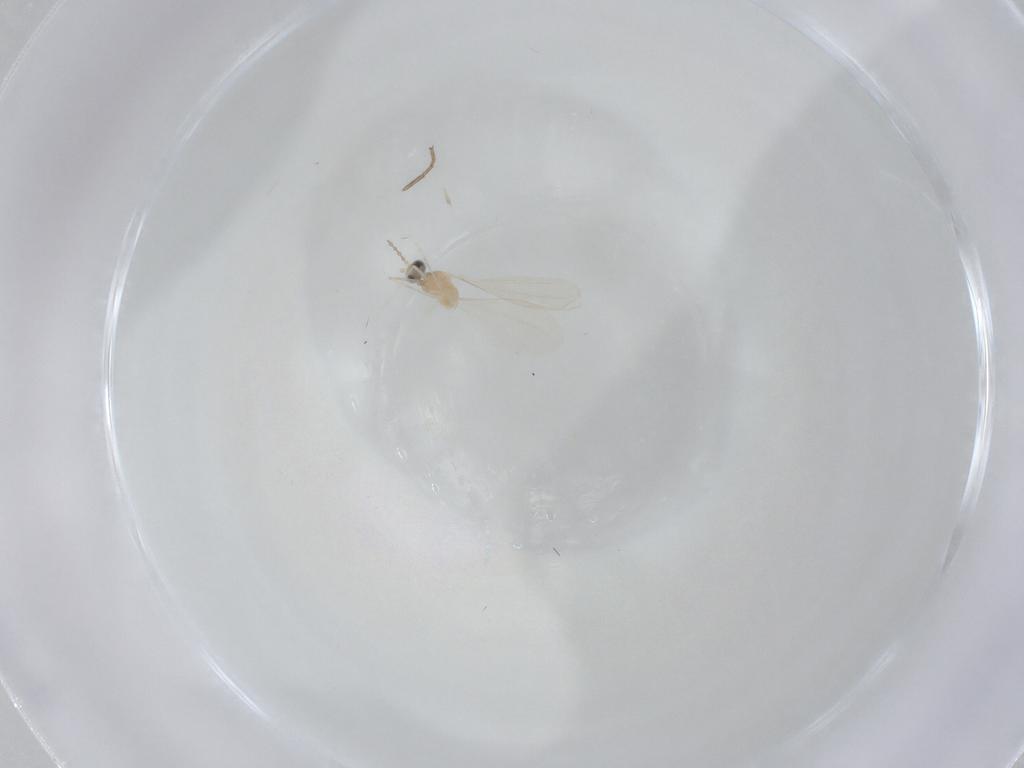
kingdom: Animalia
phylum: Arthropoda
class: Insecta
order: Diptera
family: Sphaeroceridae
